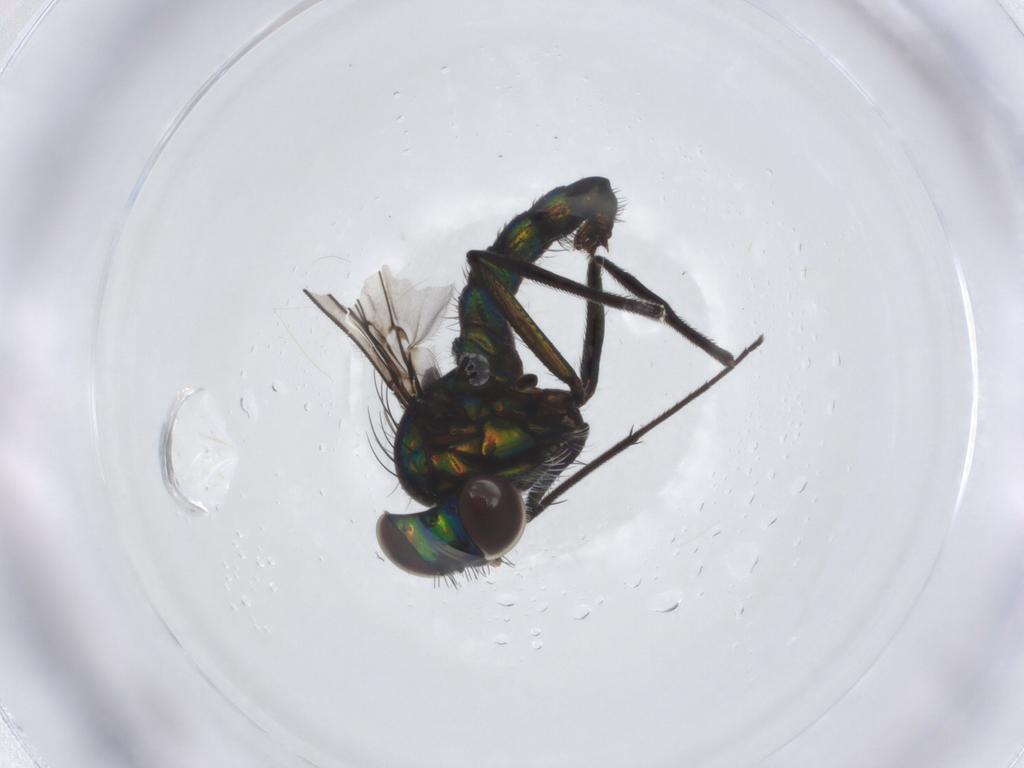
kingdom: Animalia
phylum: Arthropoda
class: Insecta
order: Diptera
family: Dolichopodidae
